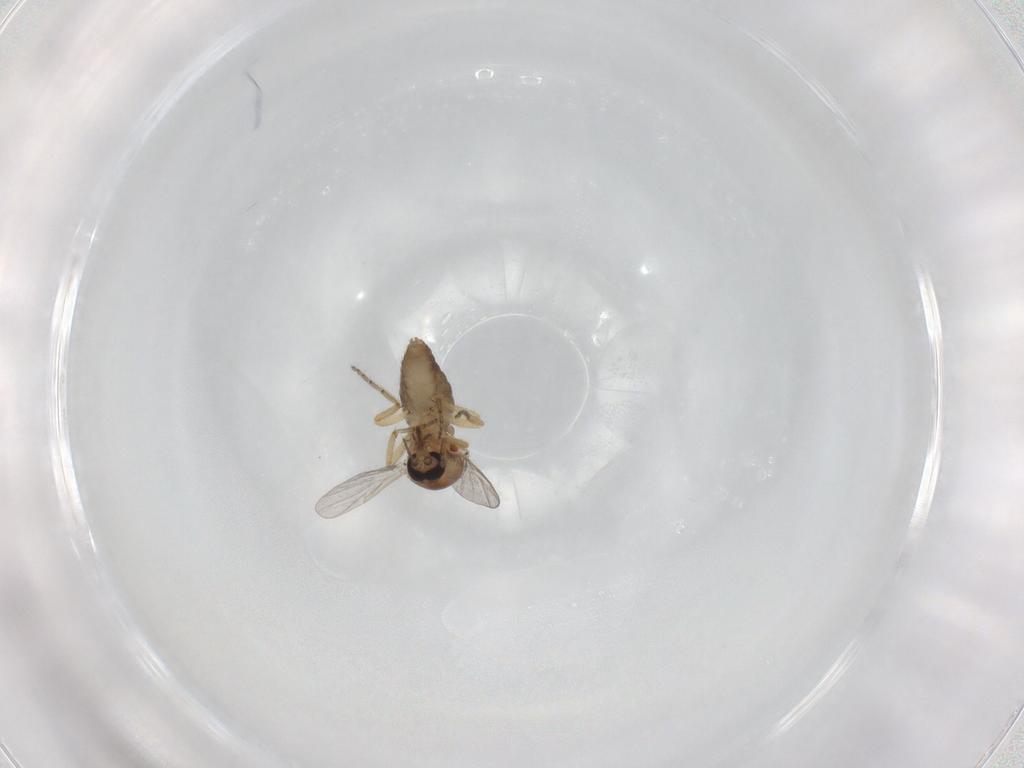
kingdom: Animalia
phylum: Arthropoda
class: Insecta
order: Diptera
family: Ceratopogonidae
